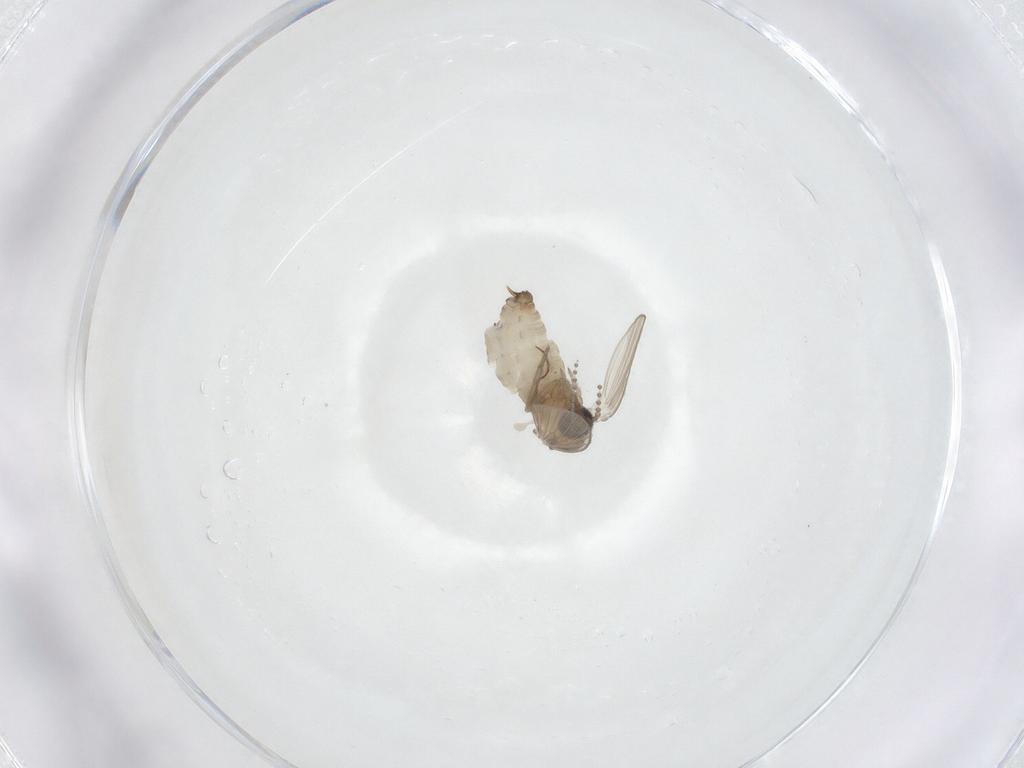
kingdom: Animalia
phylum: Arthropoda
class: Insecta
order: Diptera
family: Psychodidae
